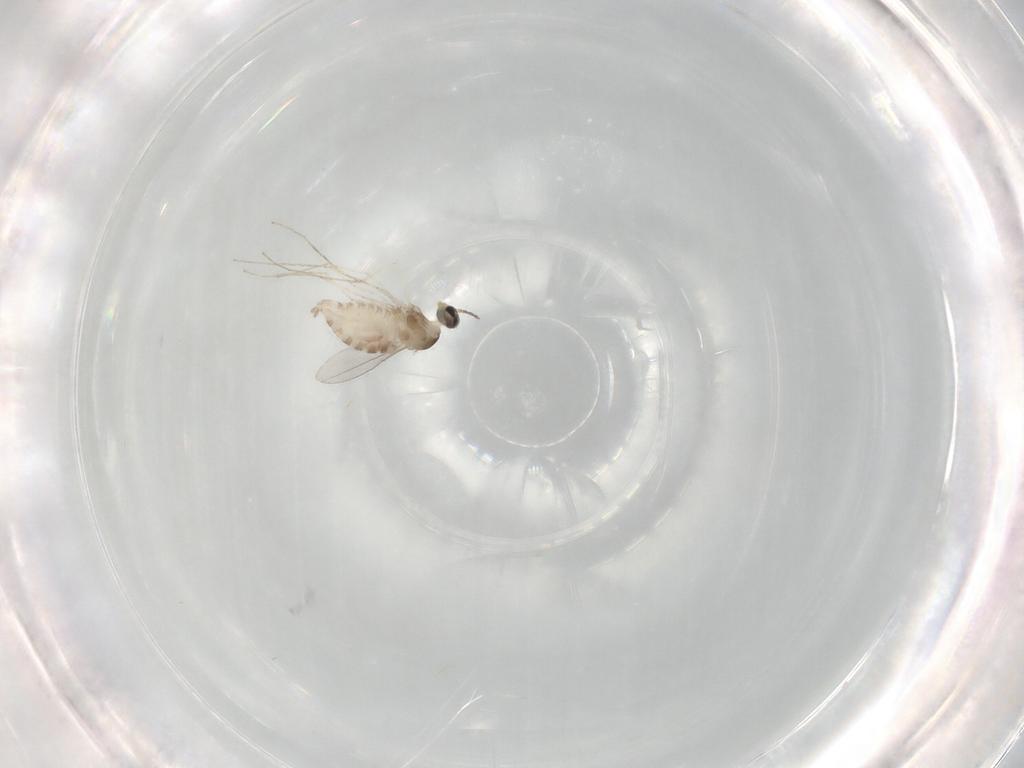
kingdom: Animalia
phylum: Arthropoda
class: Insecta
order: Diptera
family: Cecidomyiidae
